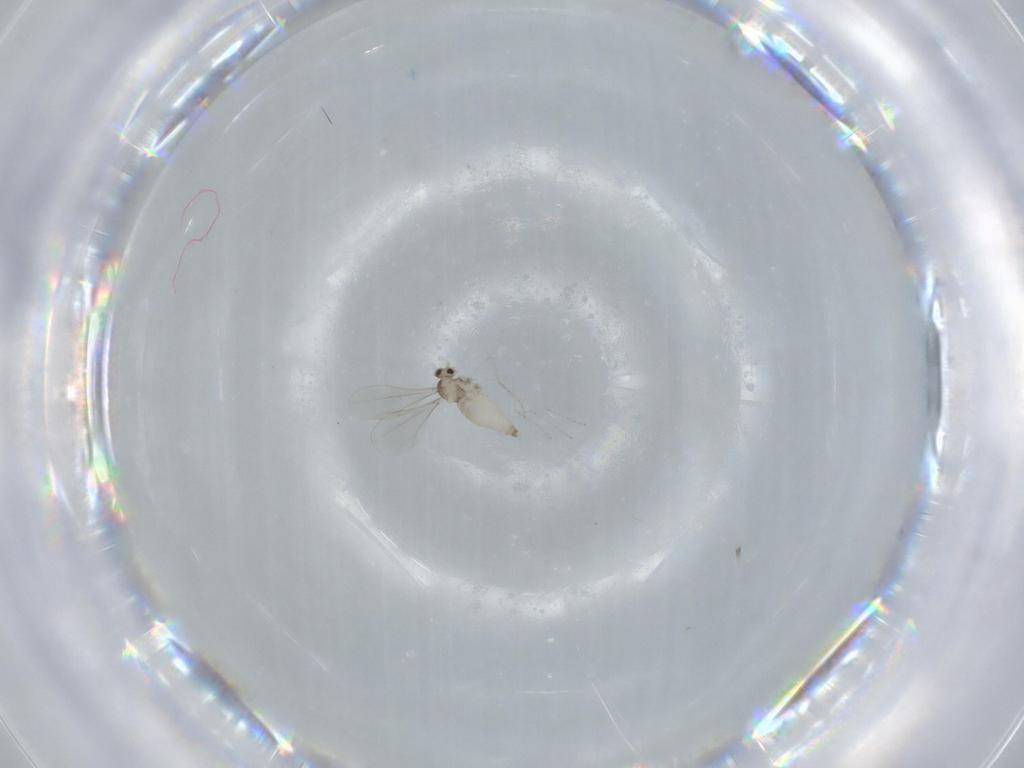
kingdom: Animalia
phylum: Arthropoda
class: Insecta
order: Diptera
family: Cecidomyiidae
